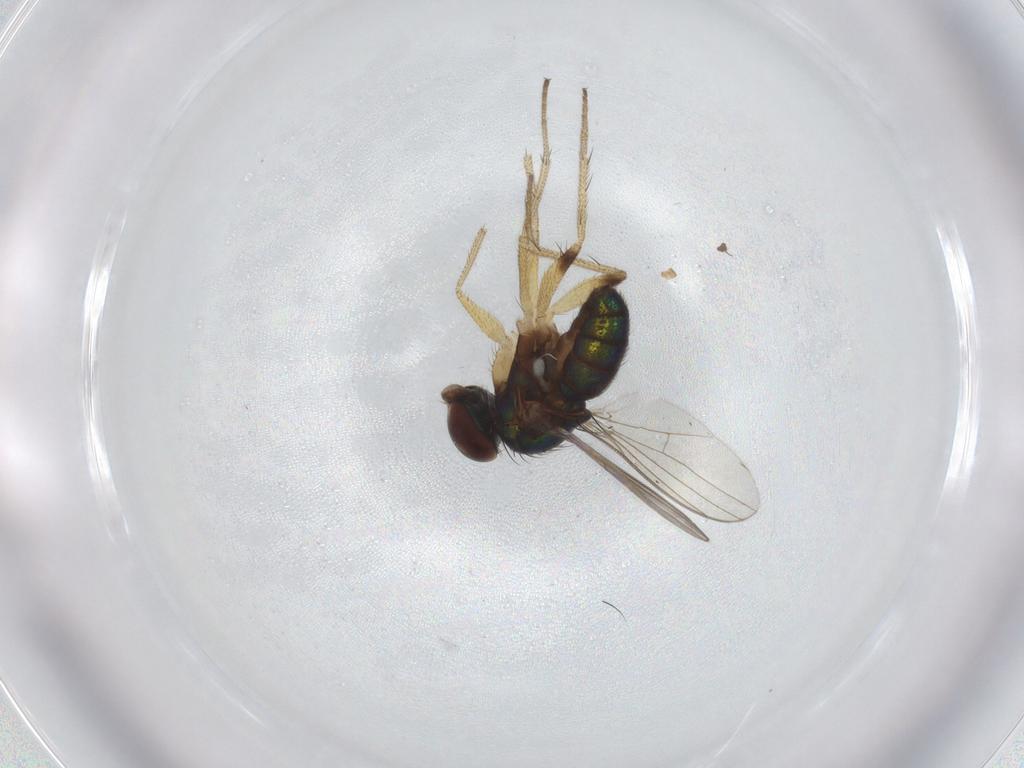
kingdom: Animalia
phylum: Arthropoda
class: Insecta
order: Diptera
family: Dolichopodidae
